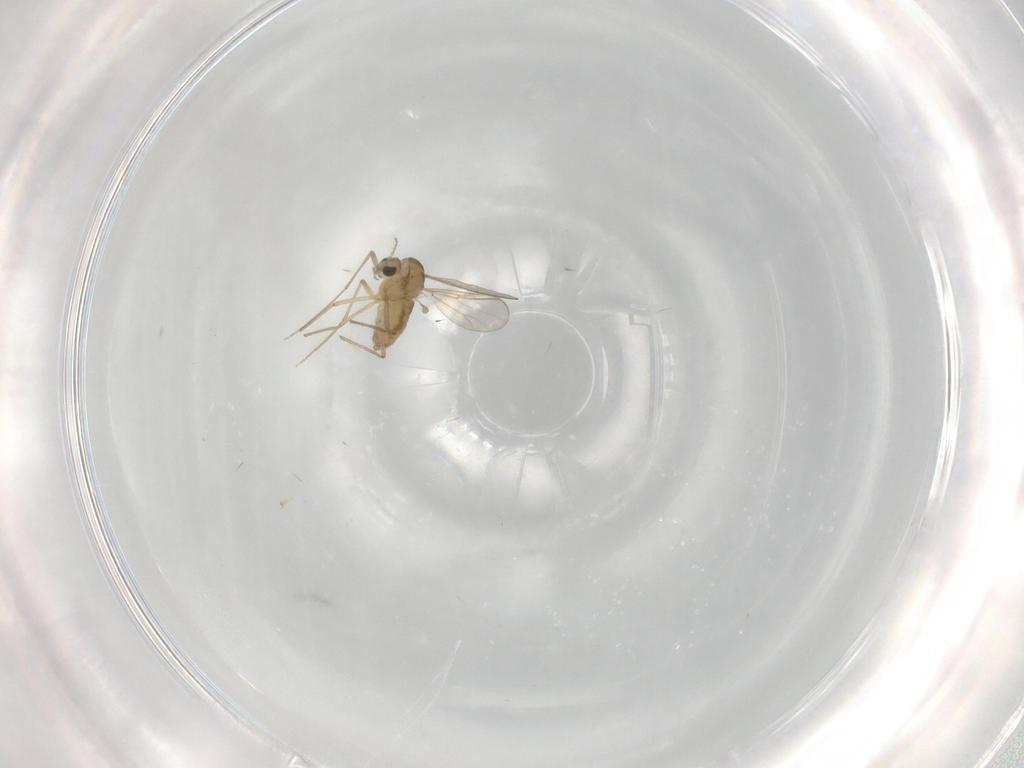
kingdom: Animalia
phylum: Arthropoda
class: Insecta
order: Diptera
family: Chironomidae
